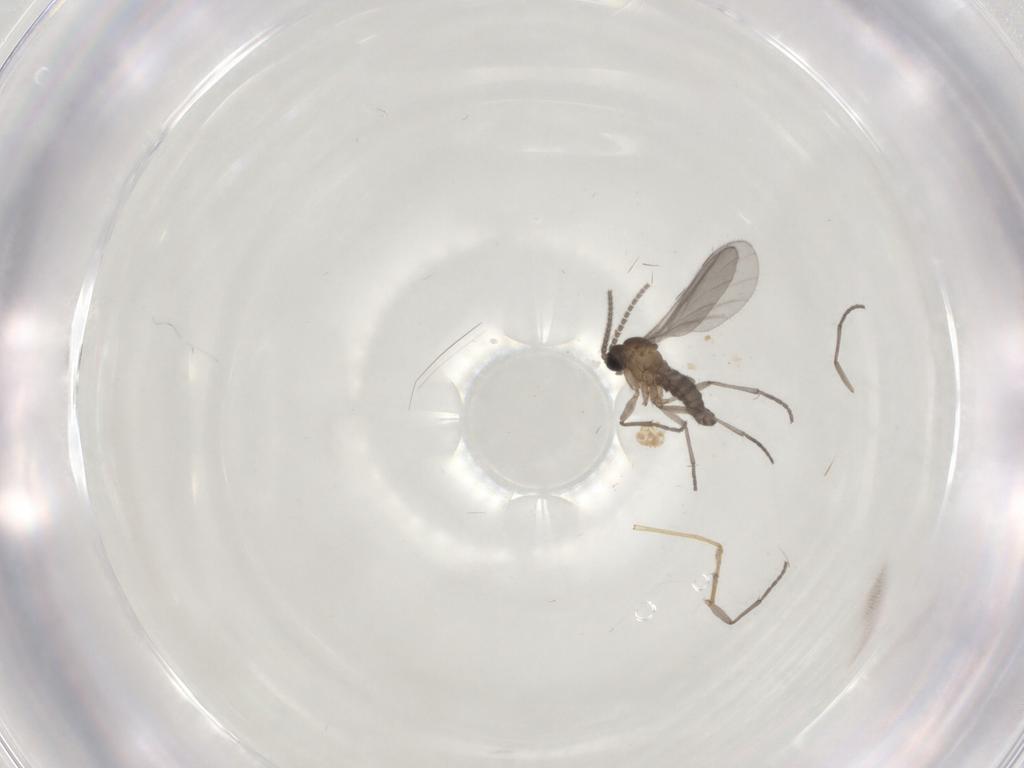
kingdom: Animalia
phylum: Arthropoda
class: Insecta
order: Diptera
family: Sciaridae
